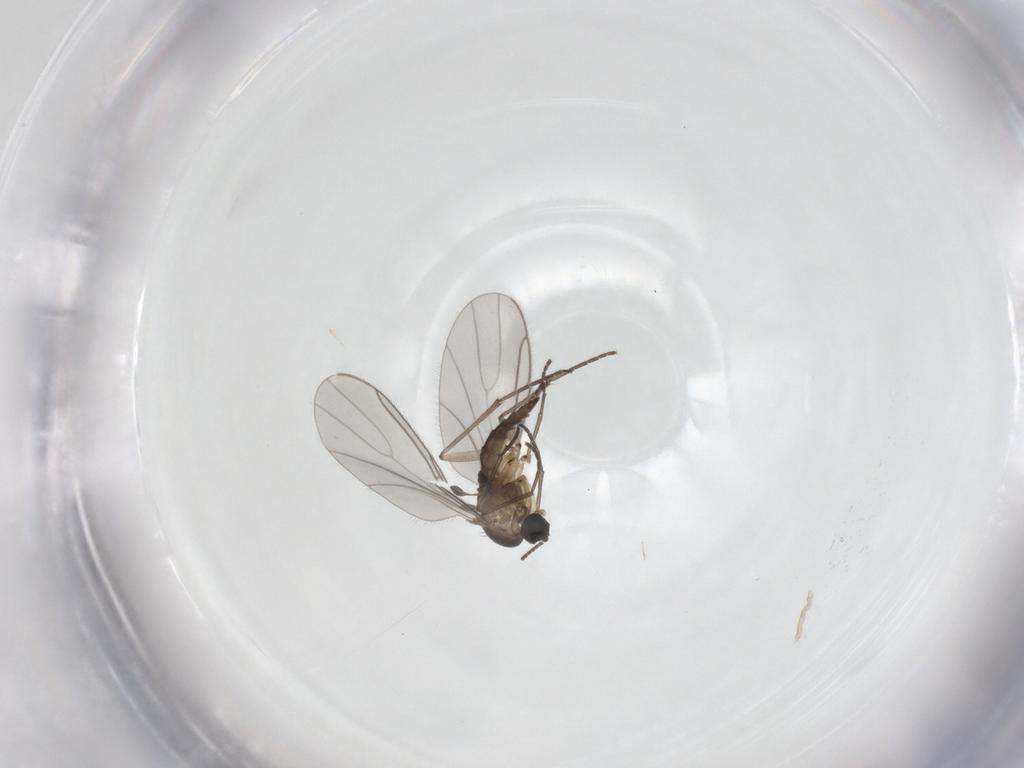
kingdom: Animalia
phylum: Arthropoda
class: Insecta
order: Diptera
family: Sciaridae
